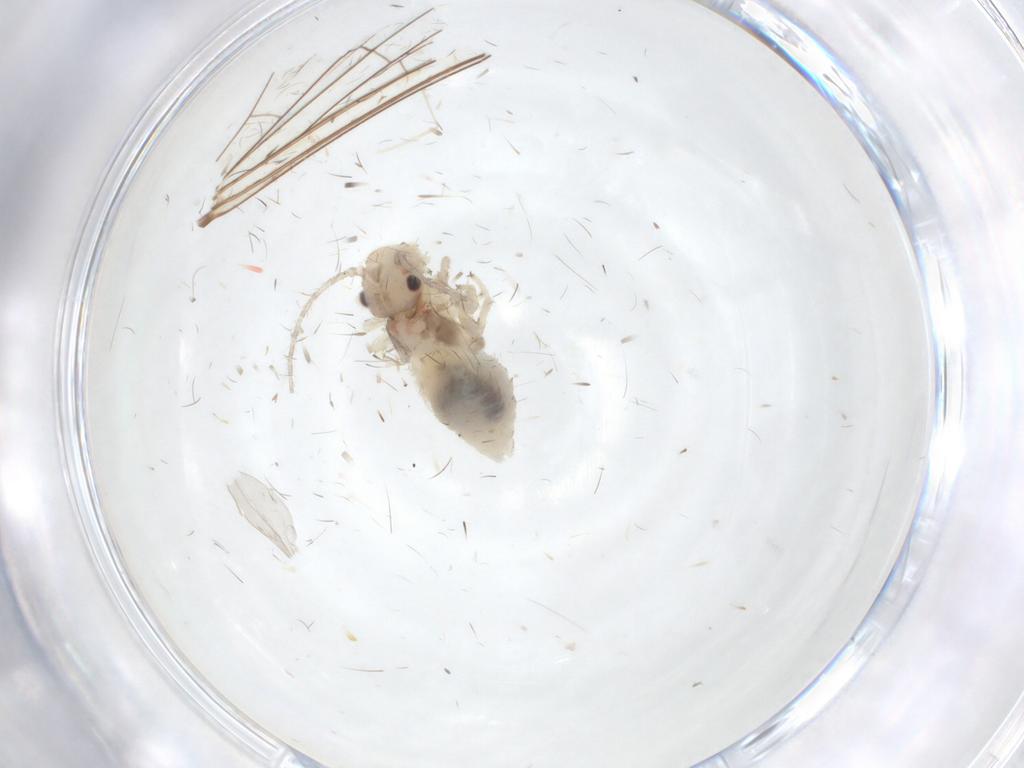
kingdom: Animalia
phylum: Arthropoda
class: Insecta
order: Psocodea
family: Amphipsocidae
